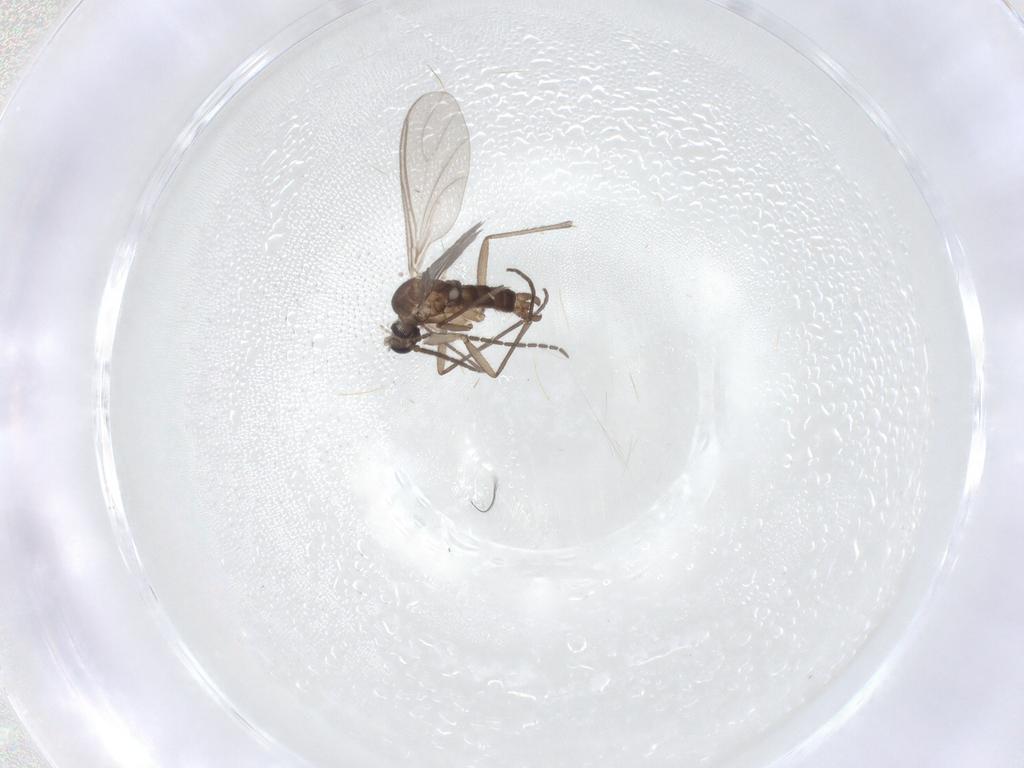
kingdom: Animalia
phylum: Arthropoda
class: Insecta
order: Diptera
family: Sciaridae
